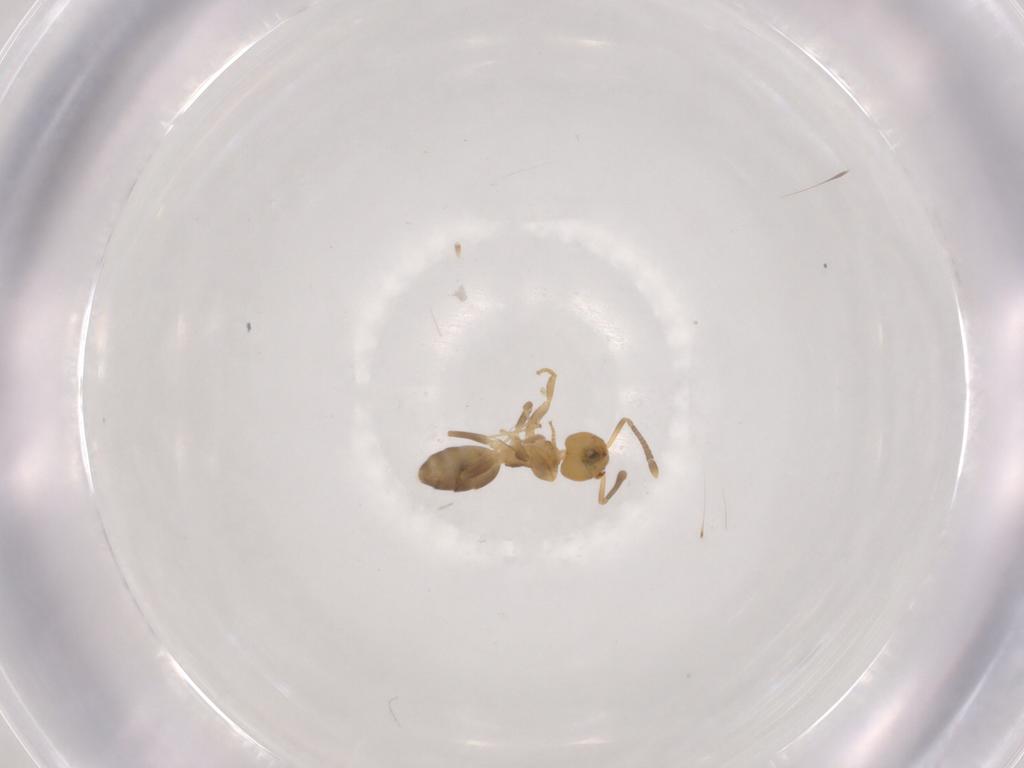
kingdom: Animalia
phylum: Arthropoda
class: Insecta
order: Hymenoptera
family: Formicidae
